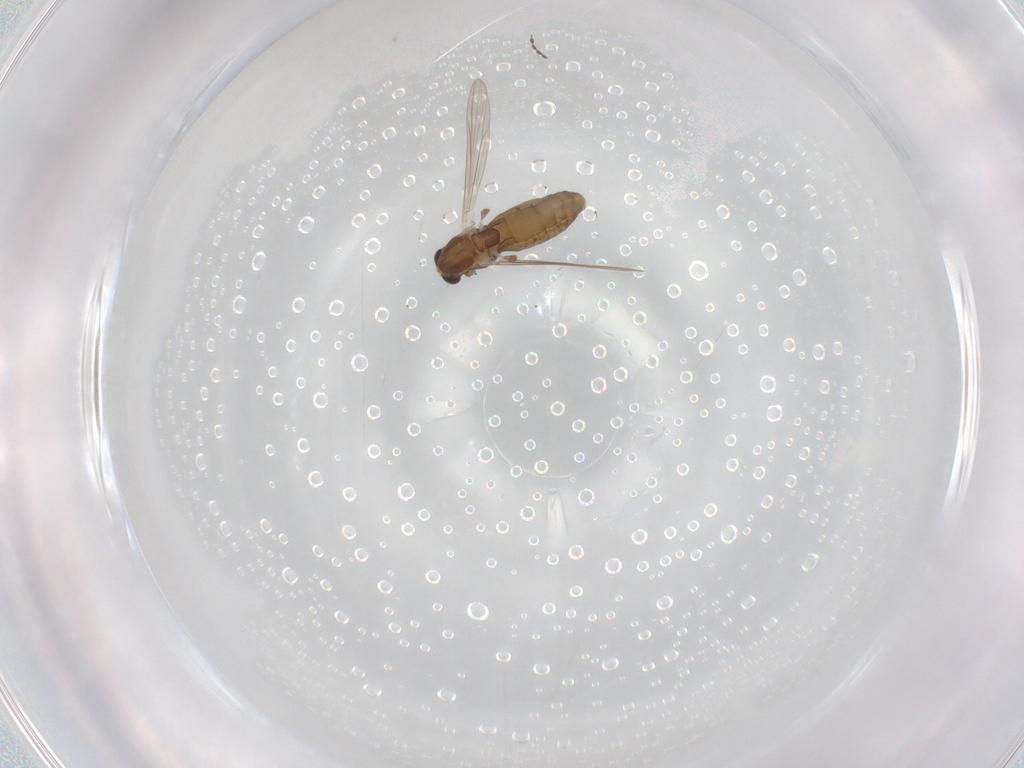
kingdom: Animalia
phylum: Arthropoda
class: Insecta
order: Diptera
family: Chironomidae
